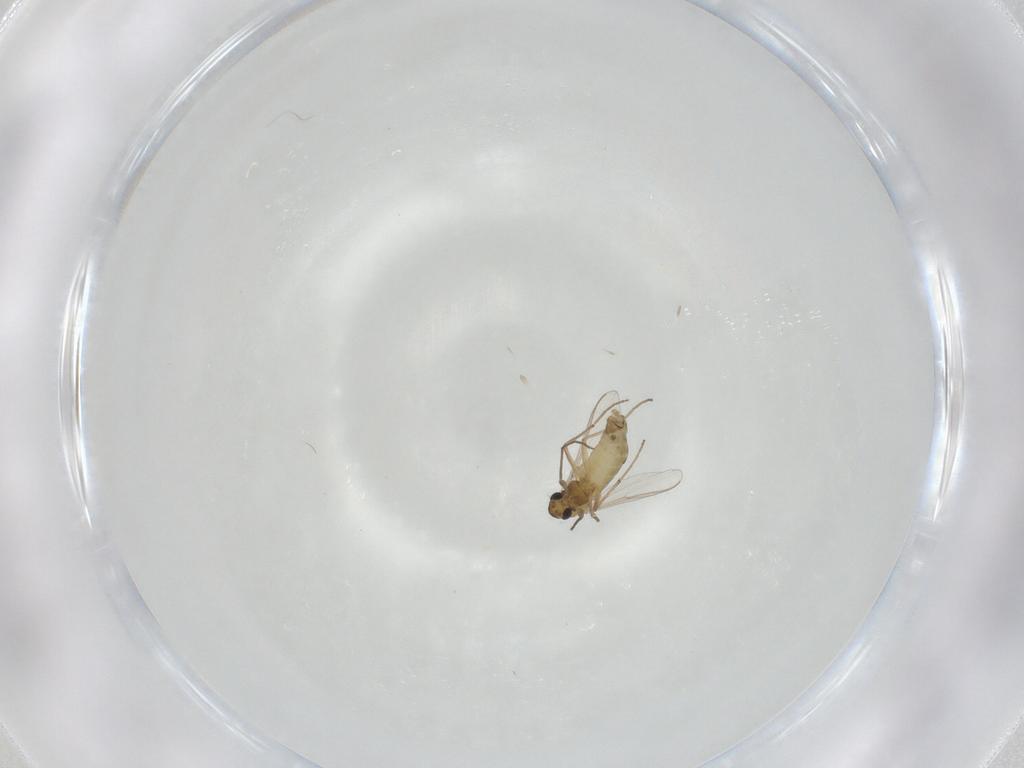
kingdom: Animalia
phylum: Arthropoda
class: Insecta
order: Diptera
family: Chironomidae
